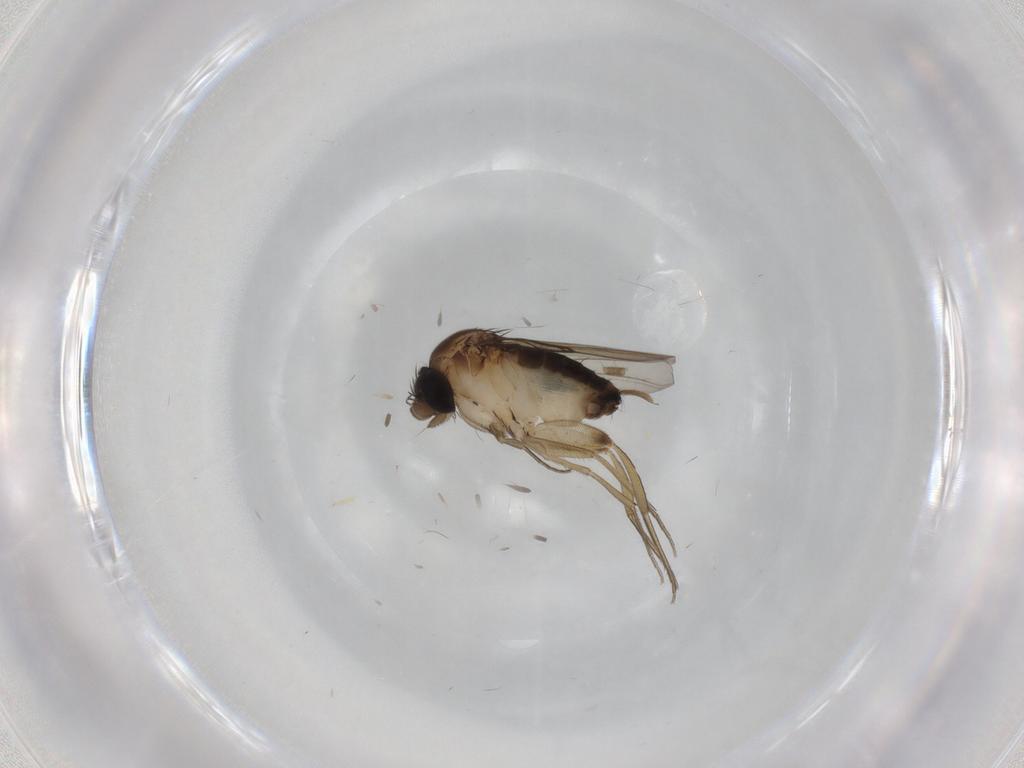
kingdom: Animalia
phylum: Arthropoda
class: Insecta
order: Diptera
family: Phoridae
